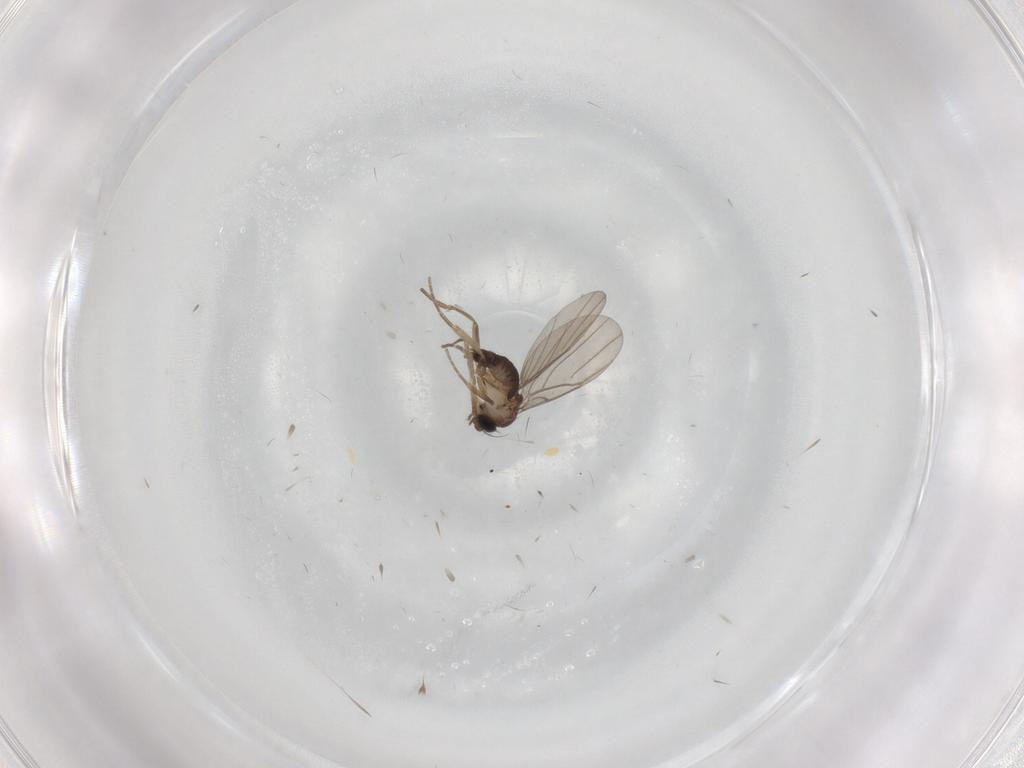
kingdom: Animalia
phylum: Arthropoda
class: Insecta
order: Diptera
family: Phoridae
